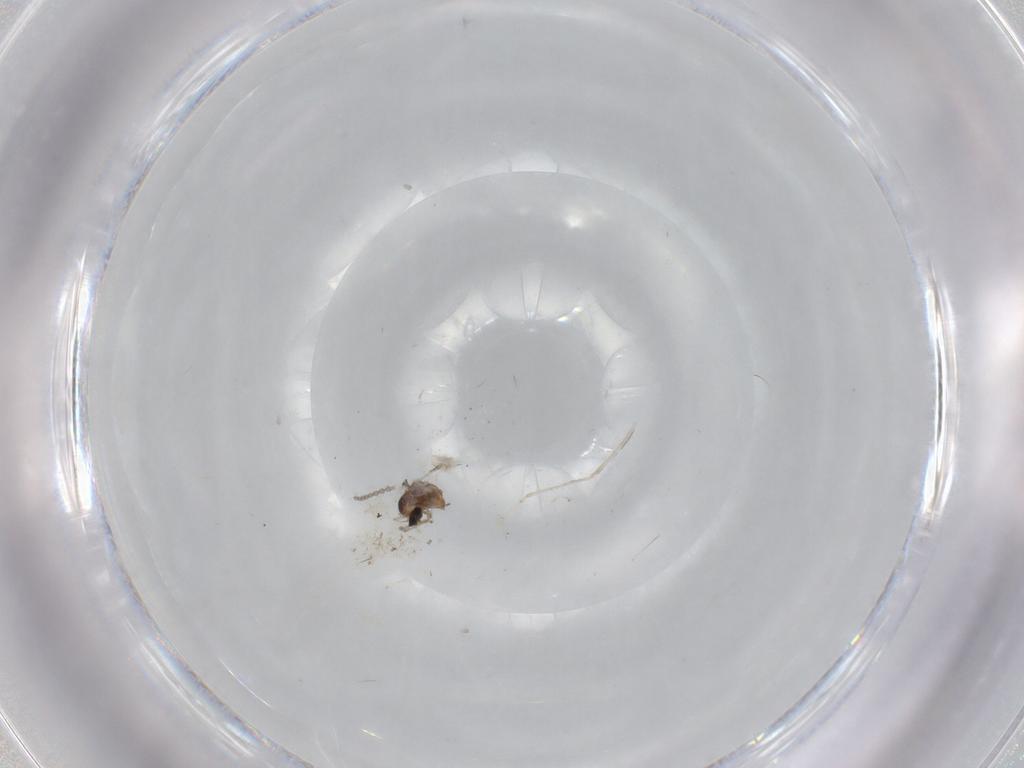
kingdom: Animalia
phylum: Arthropoda
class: Insecta
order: Diptera
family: Cecidomyiidae
